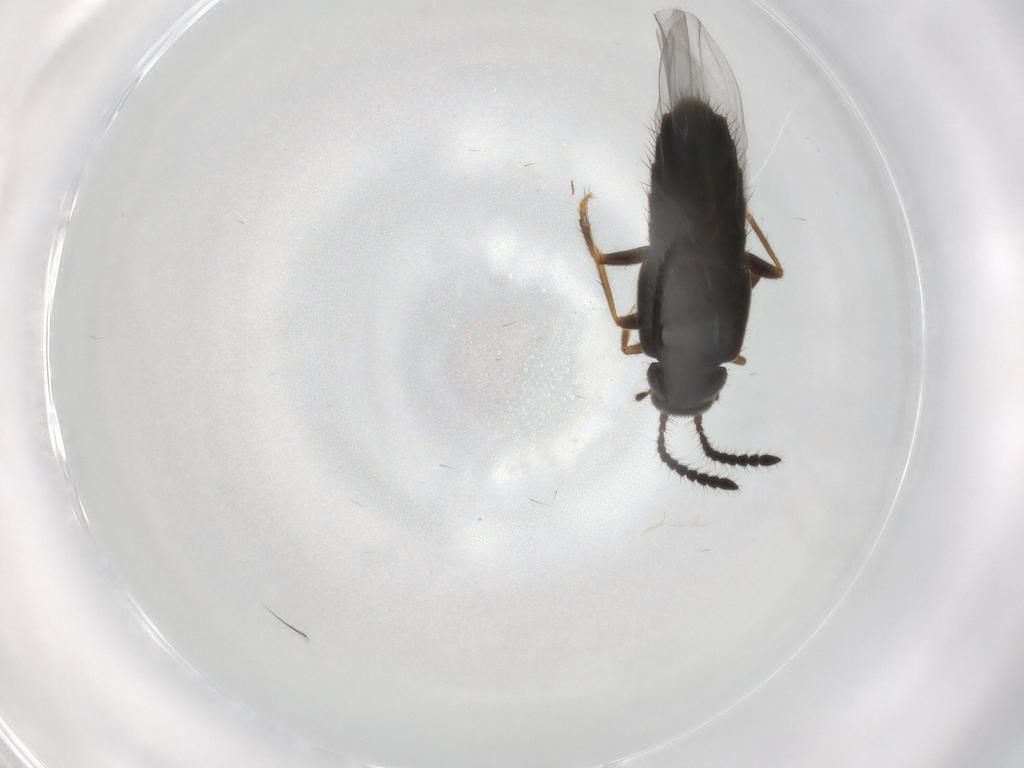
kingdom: Animalia
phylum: Arthropoda
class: Insecta
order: Coleoptera
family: Staphylinidae
